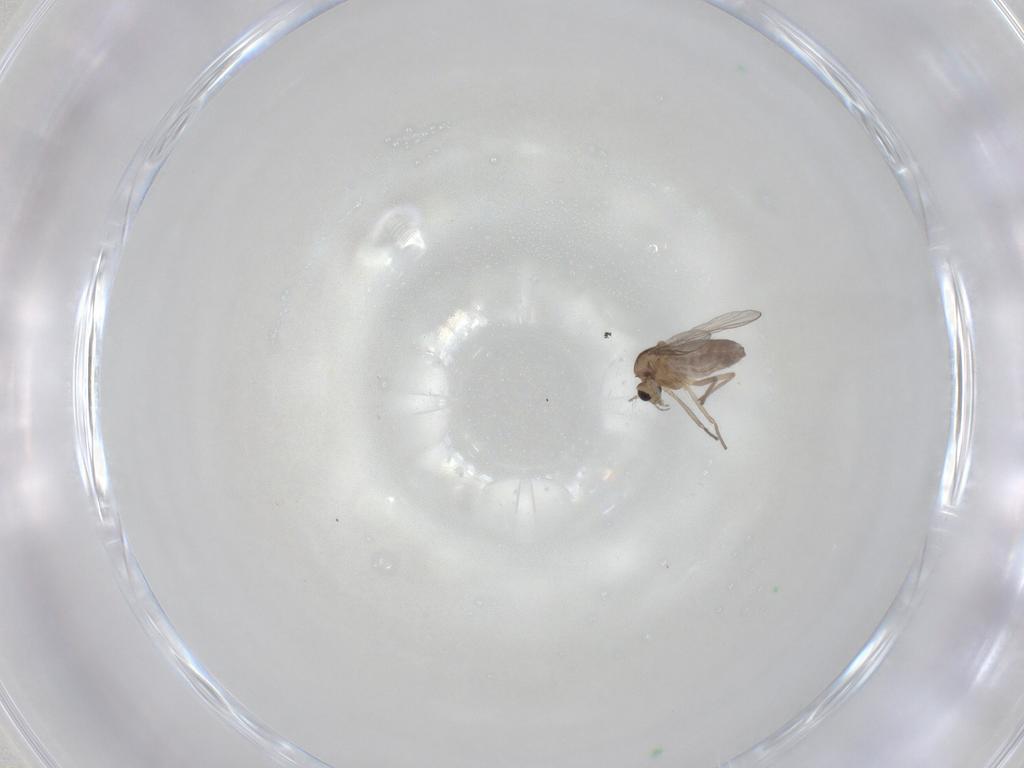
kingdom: Animalia
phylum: Arthropoda
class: Insecta
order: Diptera
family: Chironomidae
